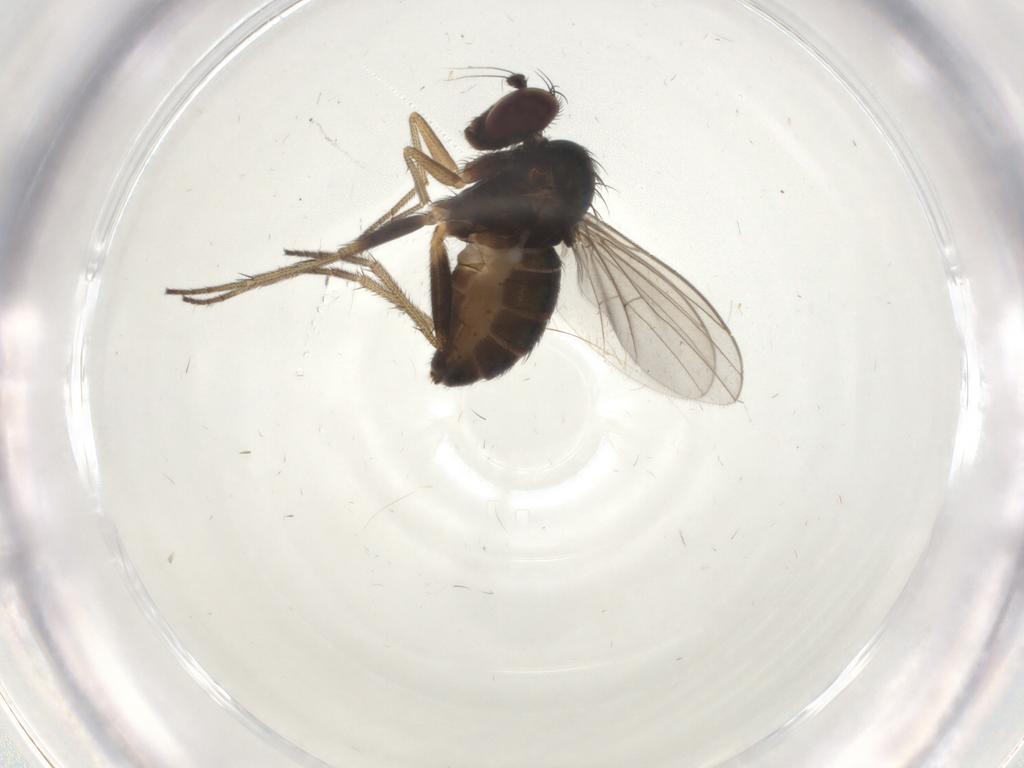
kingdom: Animalia
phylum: Arthropoda
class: Insecta
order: Diptera
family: Dolichopodidae
